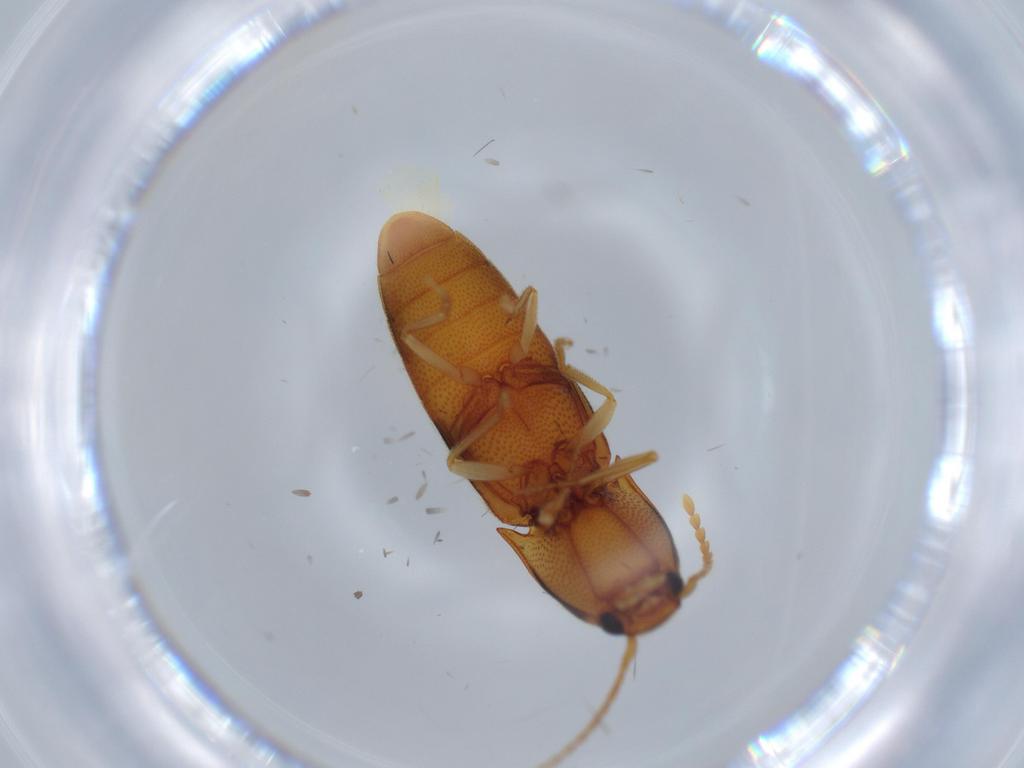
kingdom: Animalia
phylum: Arthropoda
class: Insecta
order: Coleoptera
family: Elateridae
